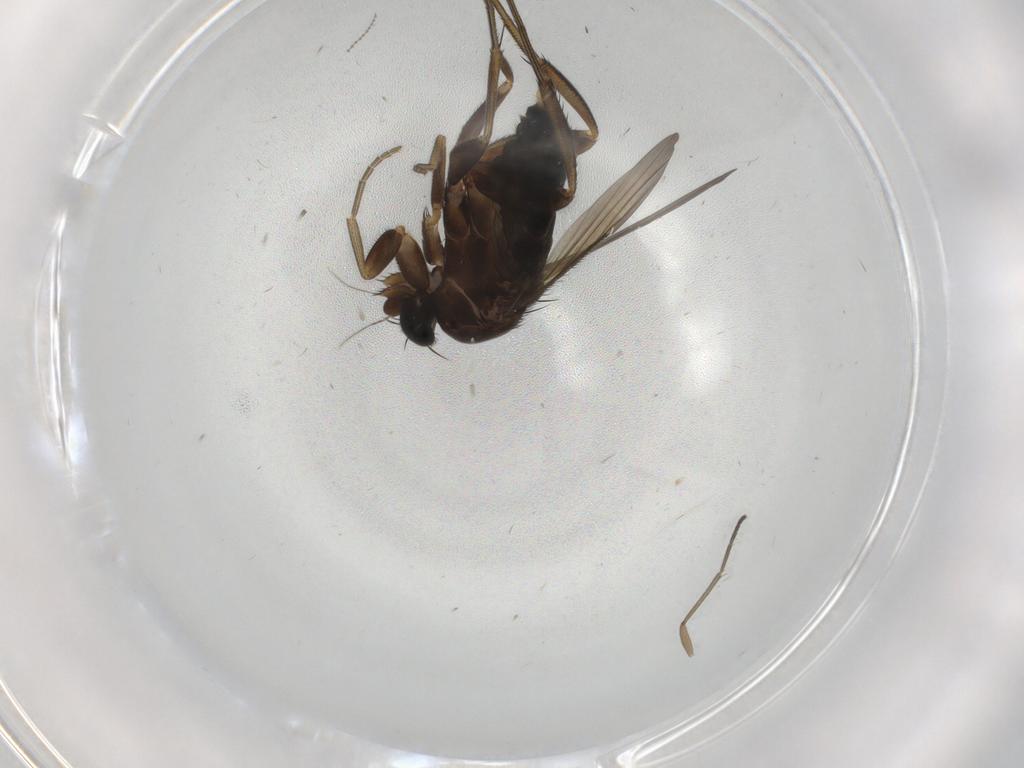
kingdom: Animalia
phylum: Arthropoda
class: Insecta
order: Diptera
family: Phoridae
